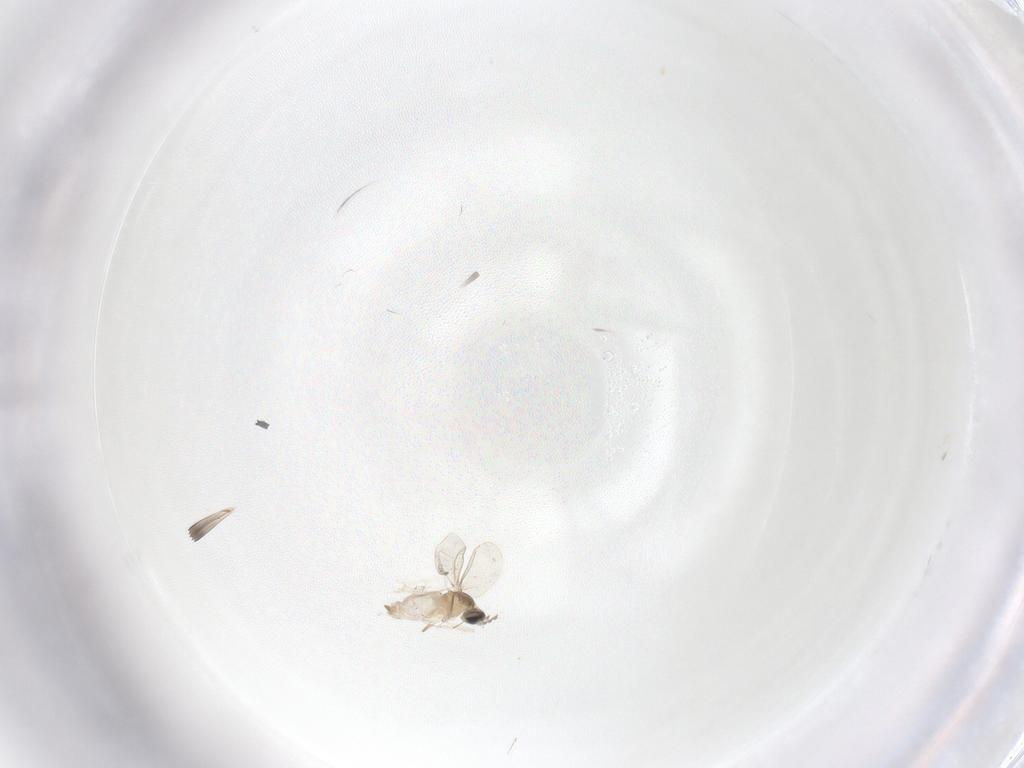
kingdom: Animalia
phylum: Arthropoda
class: Insecta
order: Diptera
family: Cecidomyiidae
